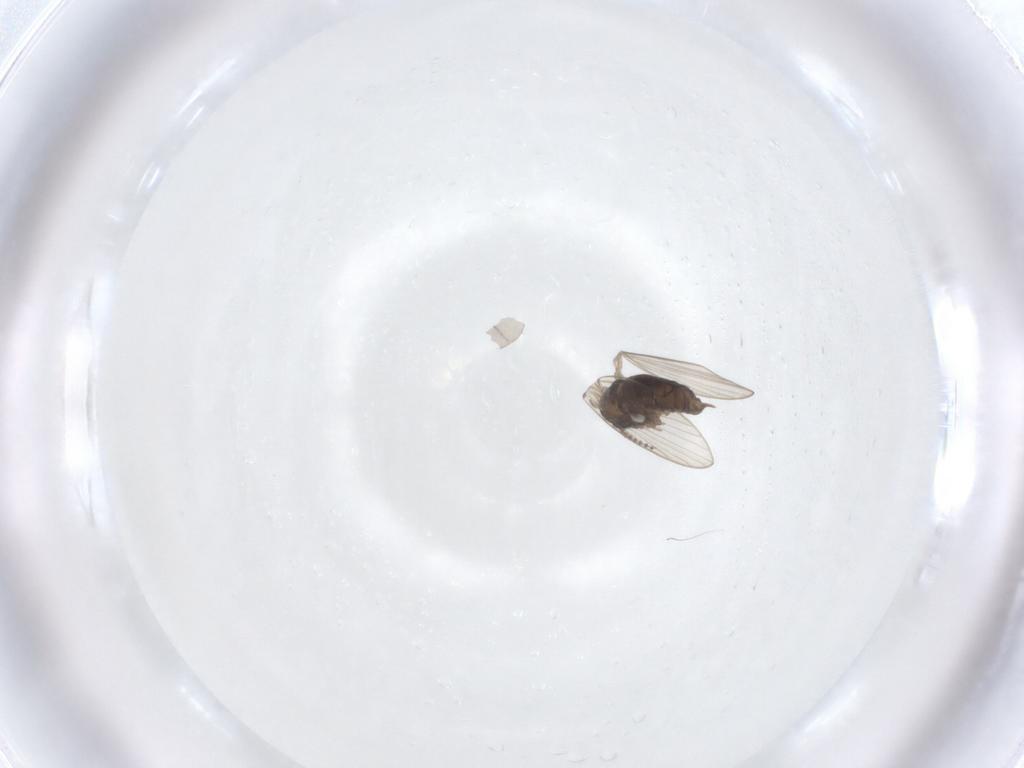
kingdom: Animalia
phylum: Arthropoda
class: Insecta
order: Diptera
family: Psychodidae
